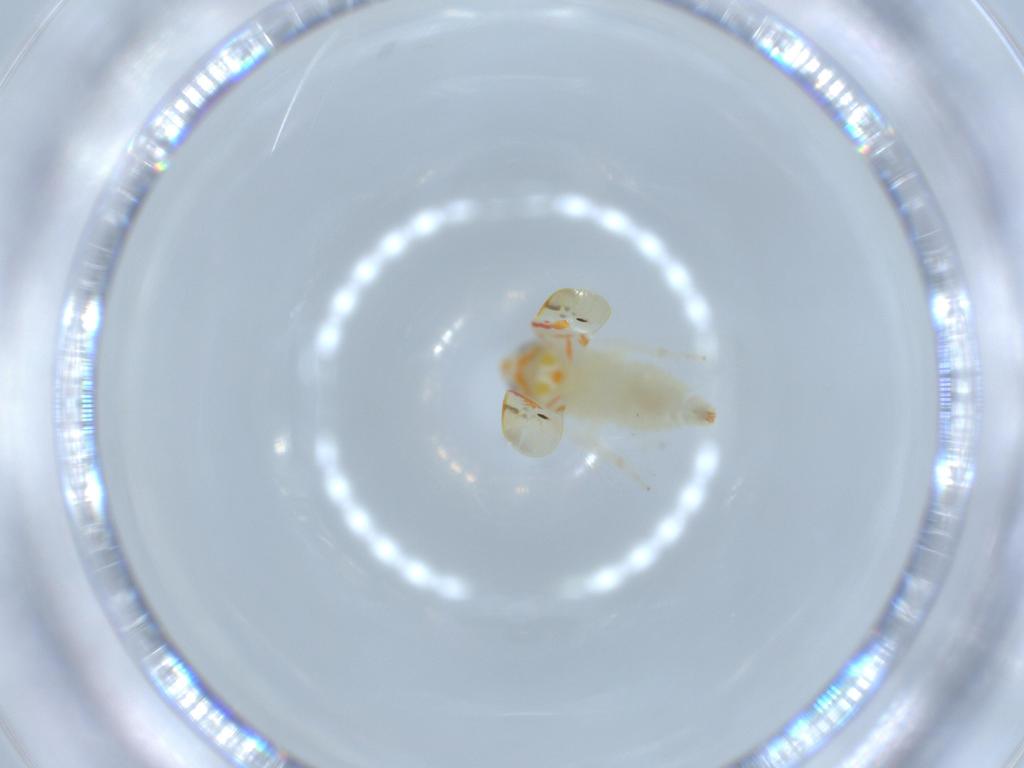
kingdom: Animalia
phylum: Arthropoda
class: Insecta
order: Hemiptera
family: Cicadellidae
